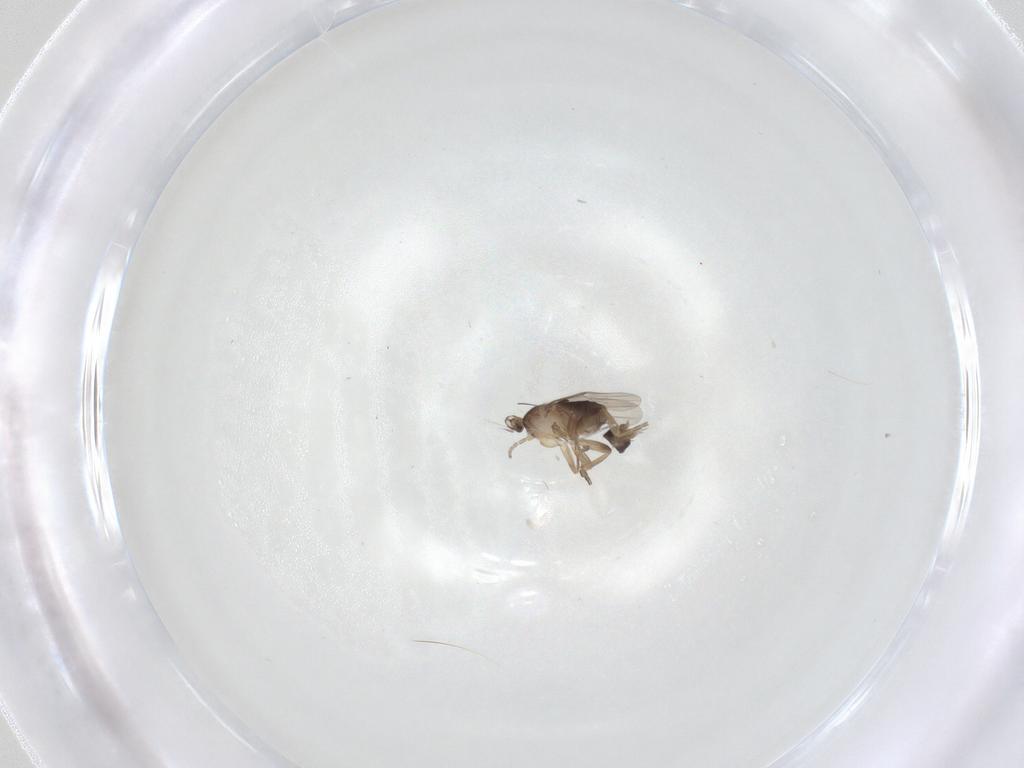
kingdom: Animalia
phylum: Arthropoda
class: Insecta
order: Diptera
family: Phoridae
